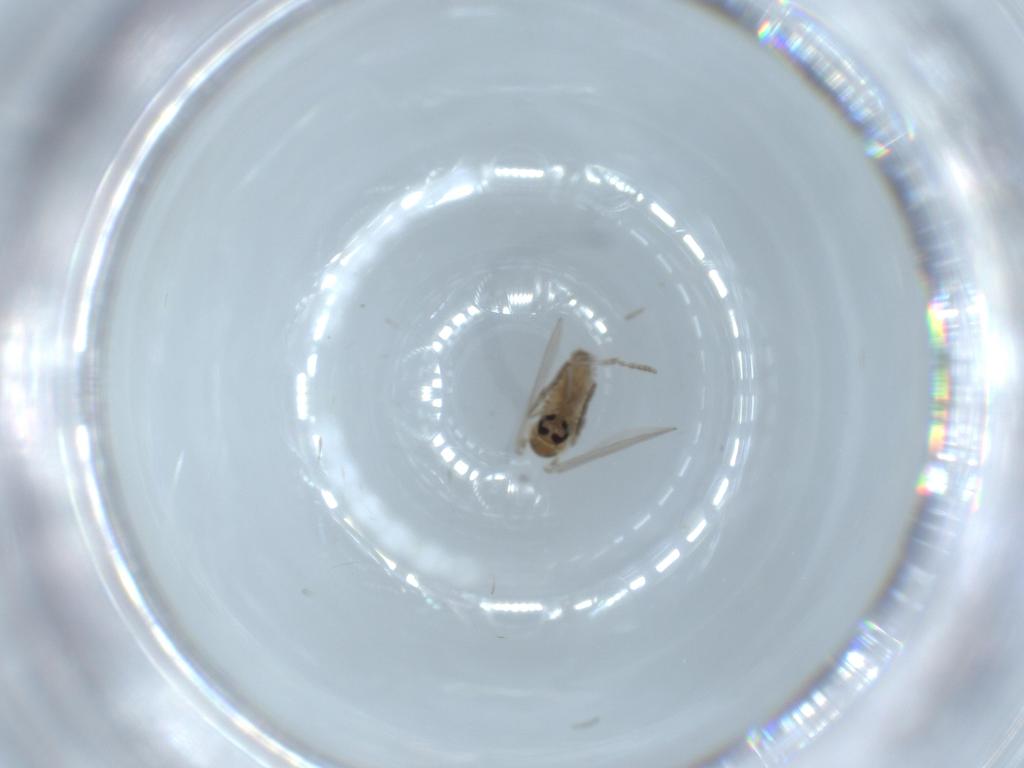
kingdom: Animalia
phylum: Arthropoda
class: Insecta
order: Diptera
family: Psychodidae
